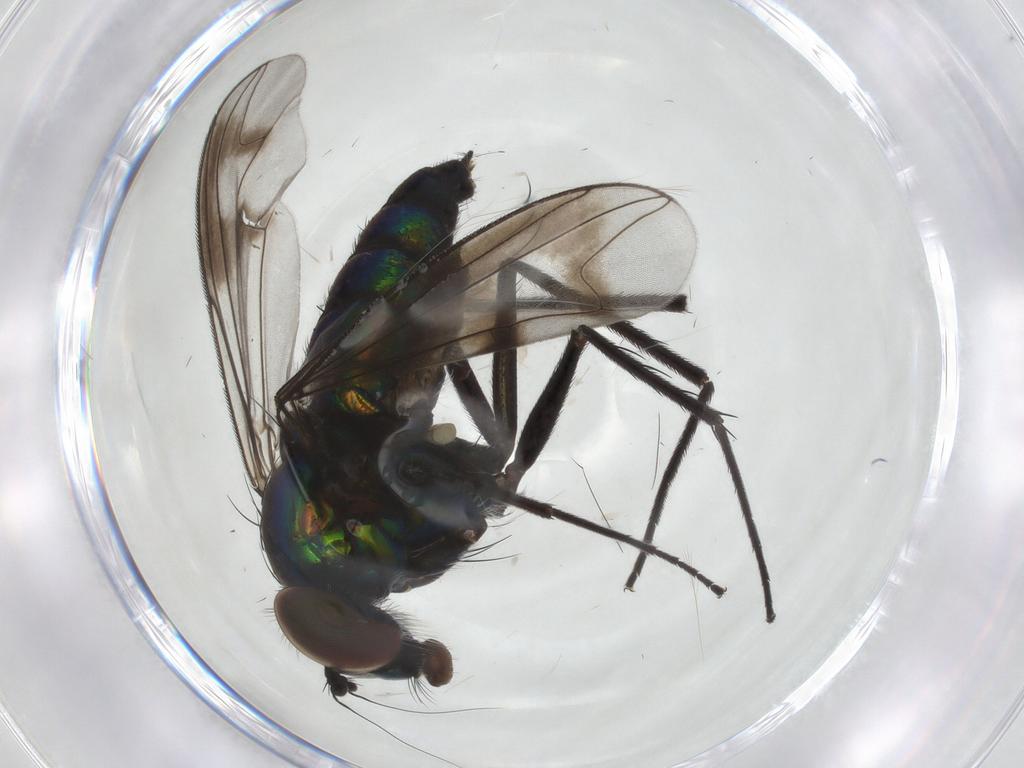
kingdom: Animalia
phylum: Arthropoda
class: Insecta
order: Diptera
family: Dolichopodidae
